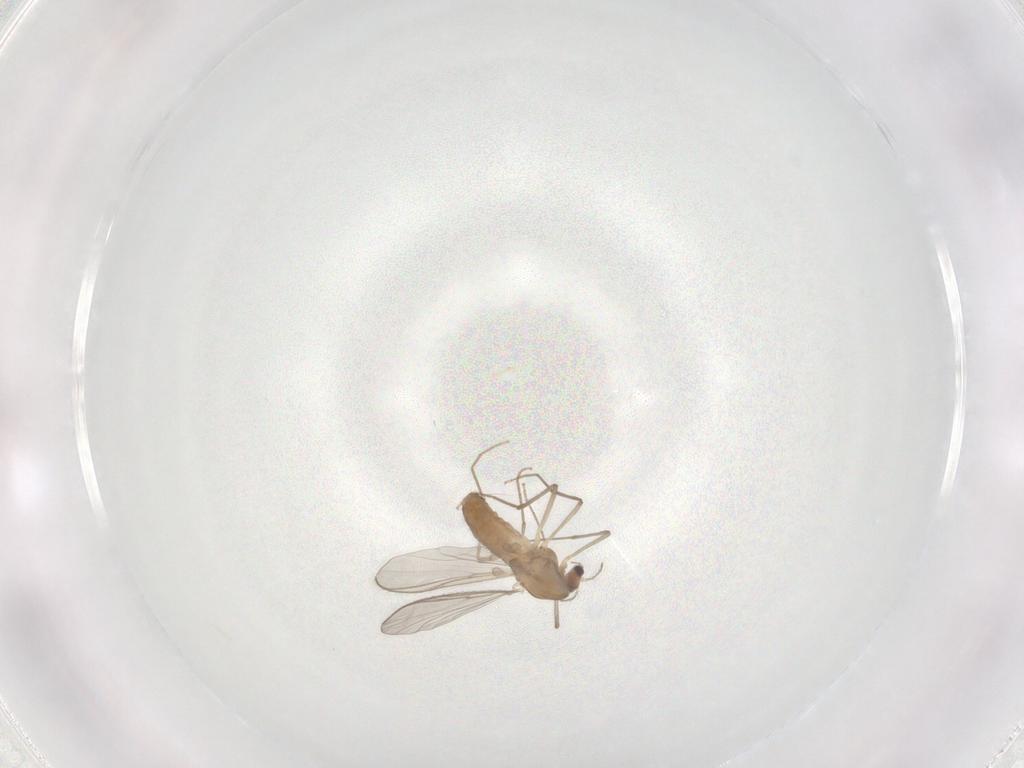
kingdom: Animalia
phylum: Arthropoda
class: Insecta
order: Diptera
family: Chironomidae
